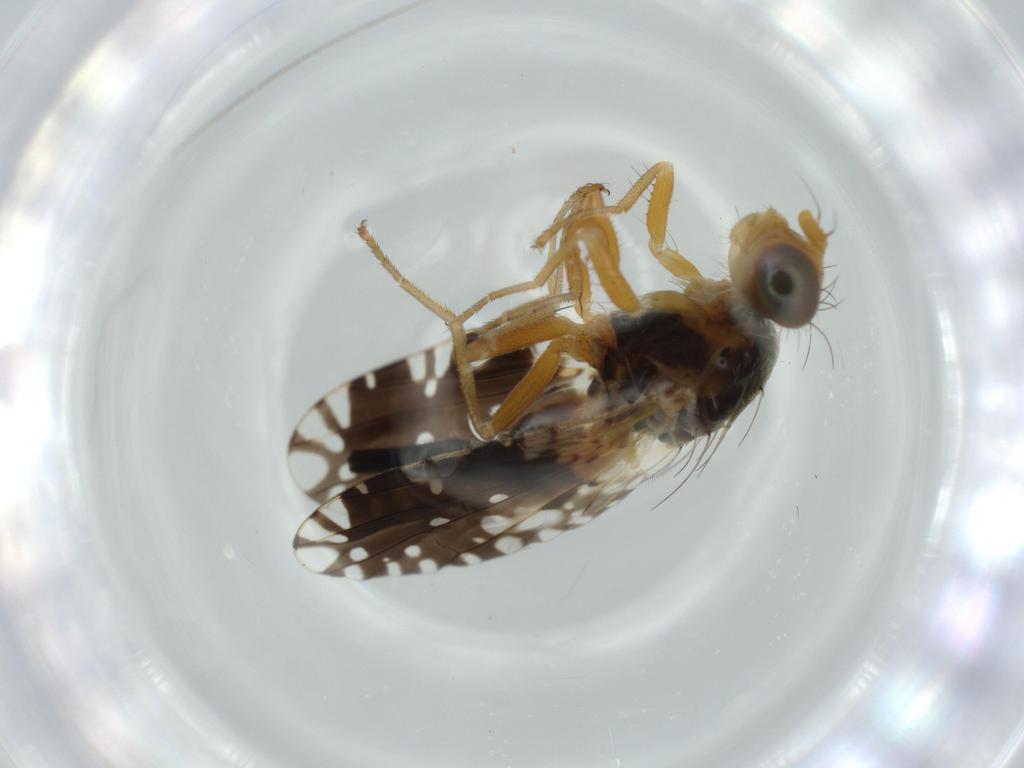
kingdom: Animalia
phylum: Arthropoda
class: Insecta
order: Diptera
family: Tephritidae
